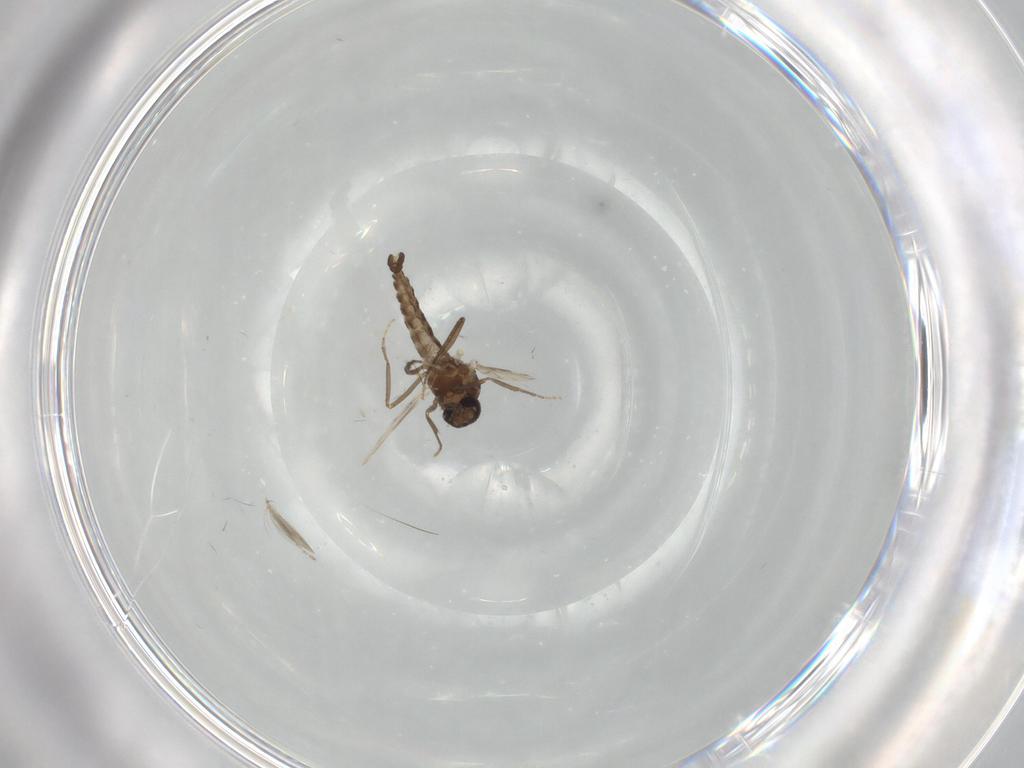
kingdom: Animalia
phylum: Arthropoda
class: Insecta
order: Diptera
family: Ceratopogonidae
